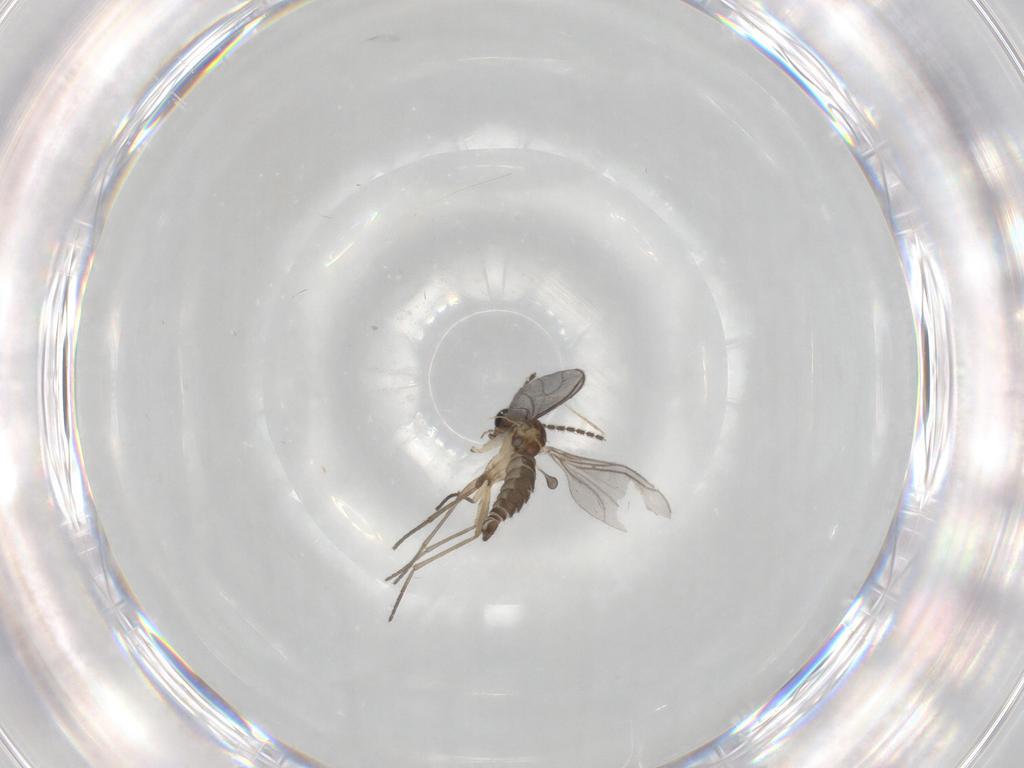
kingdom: Animalia
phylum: Arthropoda
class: Insecta
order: Diptera
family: Sciaridae
